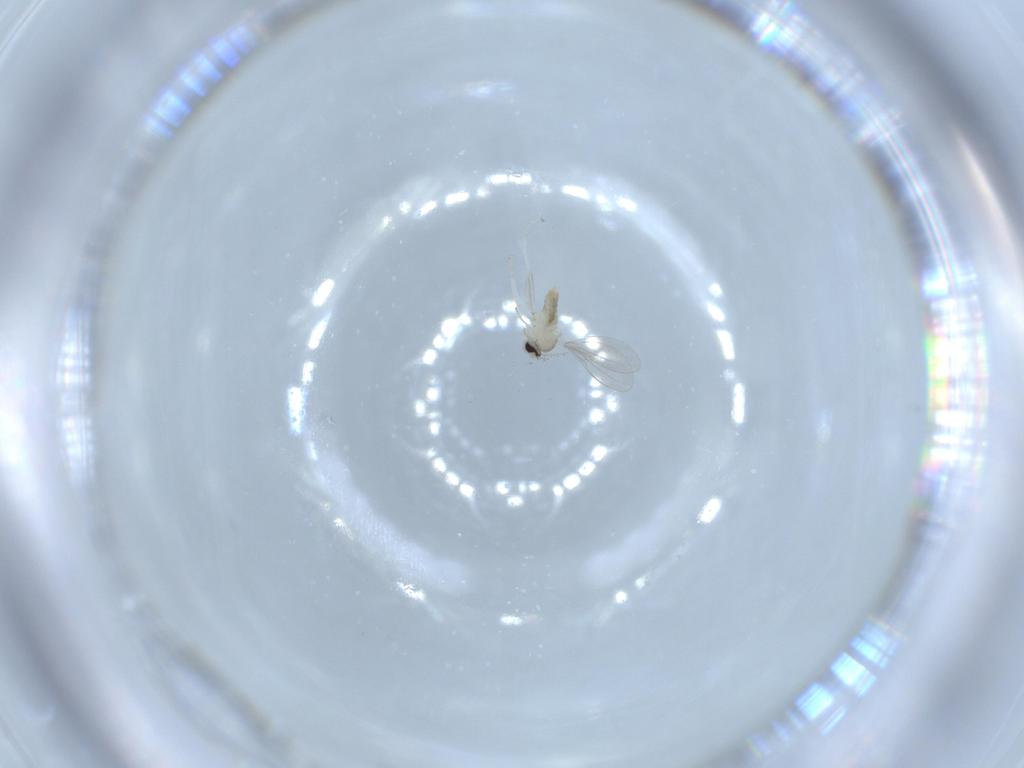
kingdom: Animalia
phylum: Arthropoda
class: Insecta
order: Diptera
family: Cecidomyiidae
